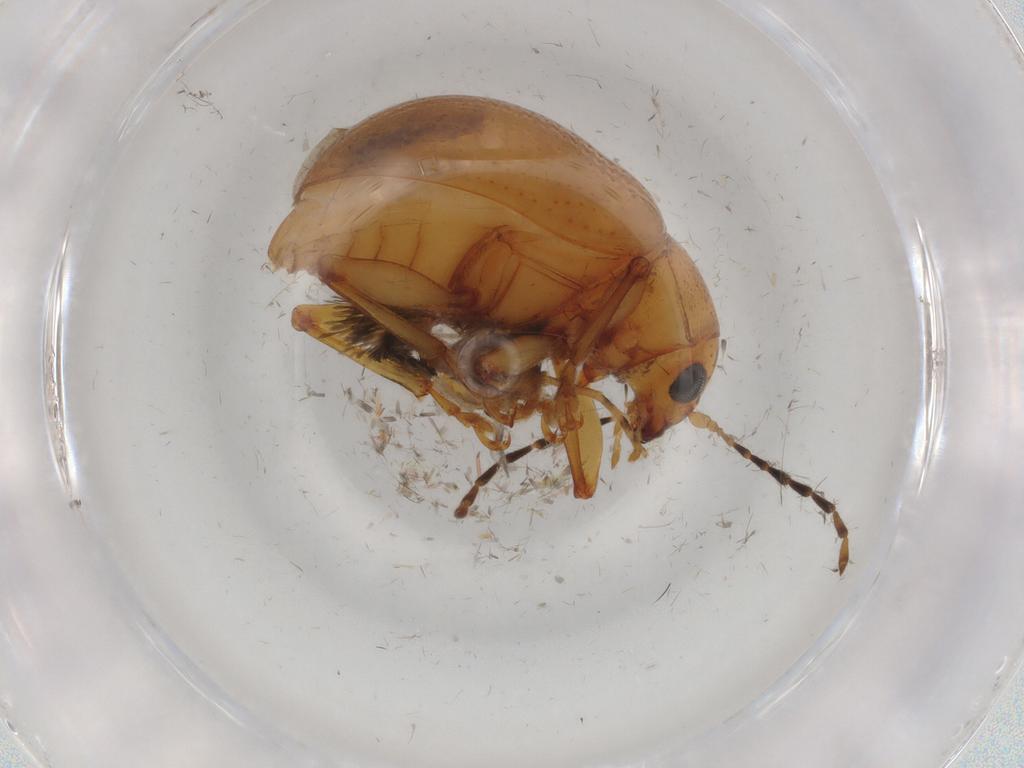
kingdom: Animalia
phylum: Arthropoda
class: Insecta
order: Coleoptera
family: Chrysomelidae
